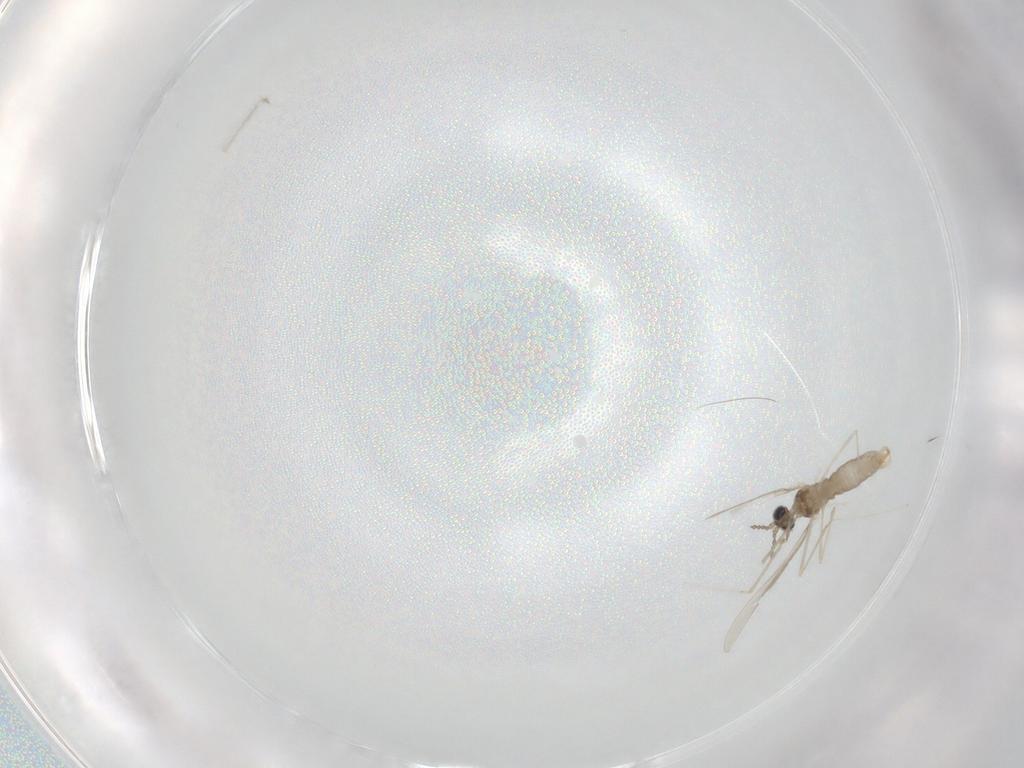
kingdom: Animalia
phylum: Arthropoda
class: Insecta
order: Diptera
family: Cecidomyiidae
